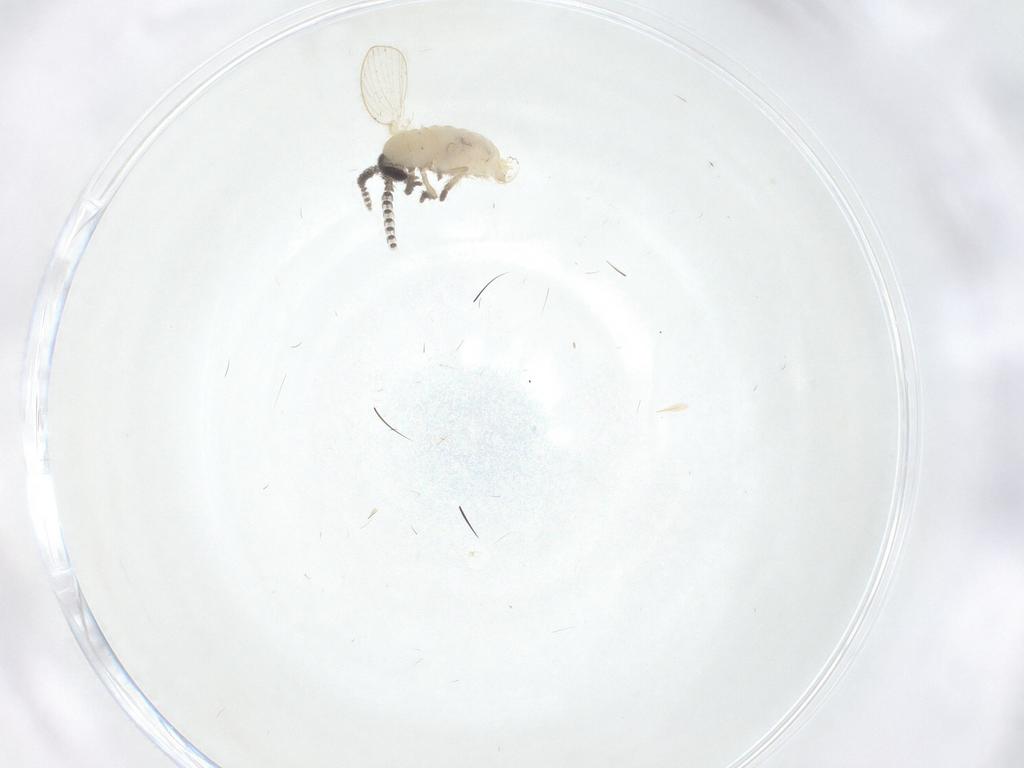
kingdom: Animalia
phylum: Arthropoda
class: Insecta
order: Diptera
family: Psychodidae
